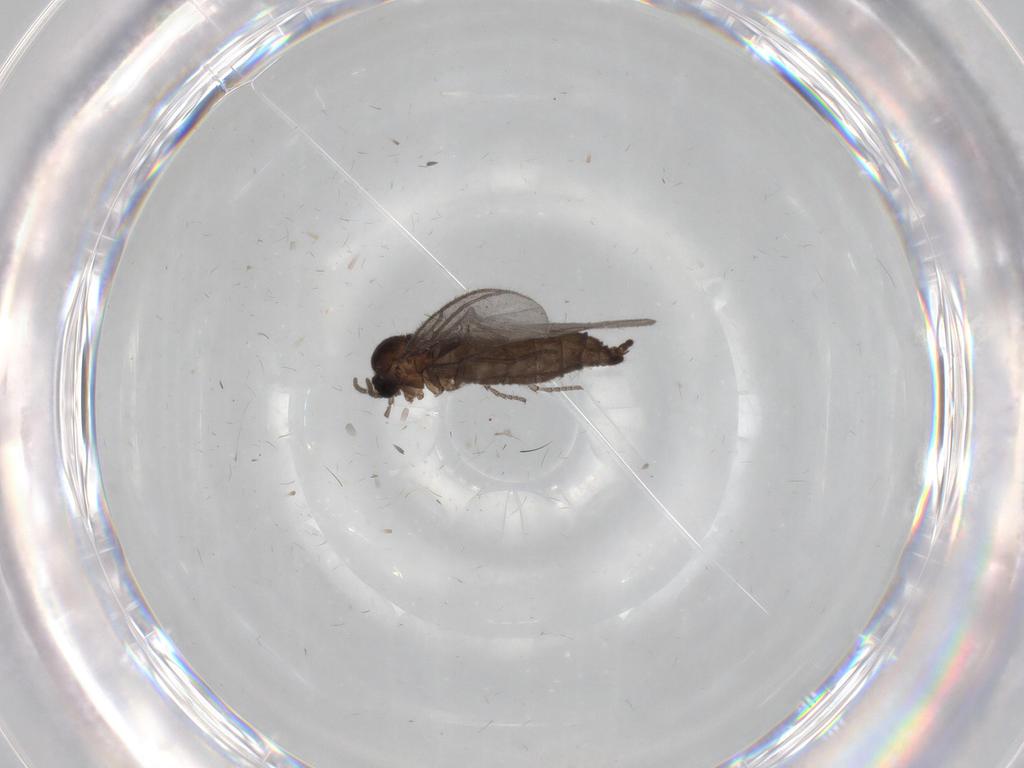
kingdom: Animalia
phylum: Arthropoda
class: Insecta
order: Diptera
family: Chironomidae
